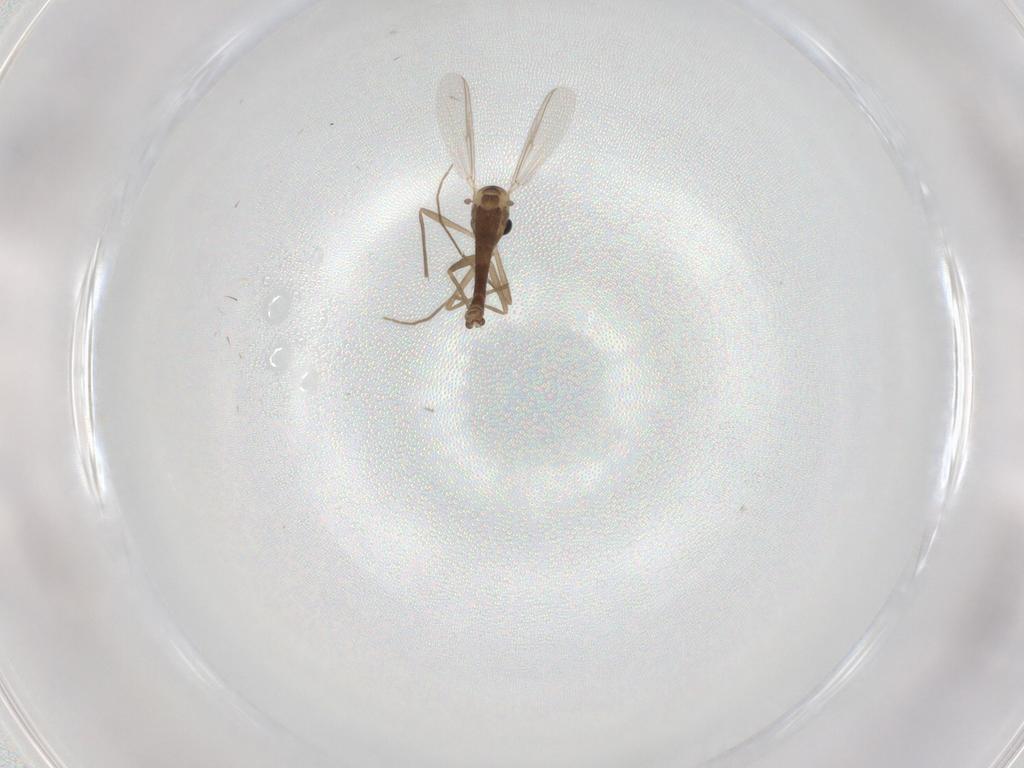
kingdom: Animalia
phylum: Arthropoda
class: Insecta
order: Diptera
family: Chironomidae
